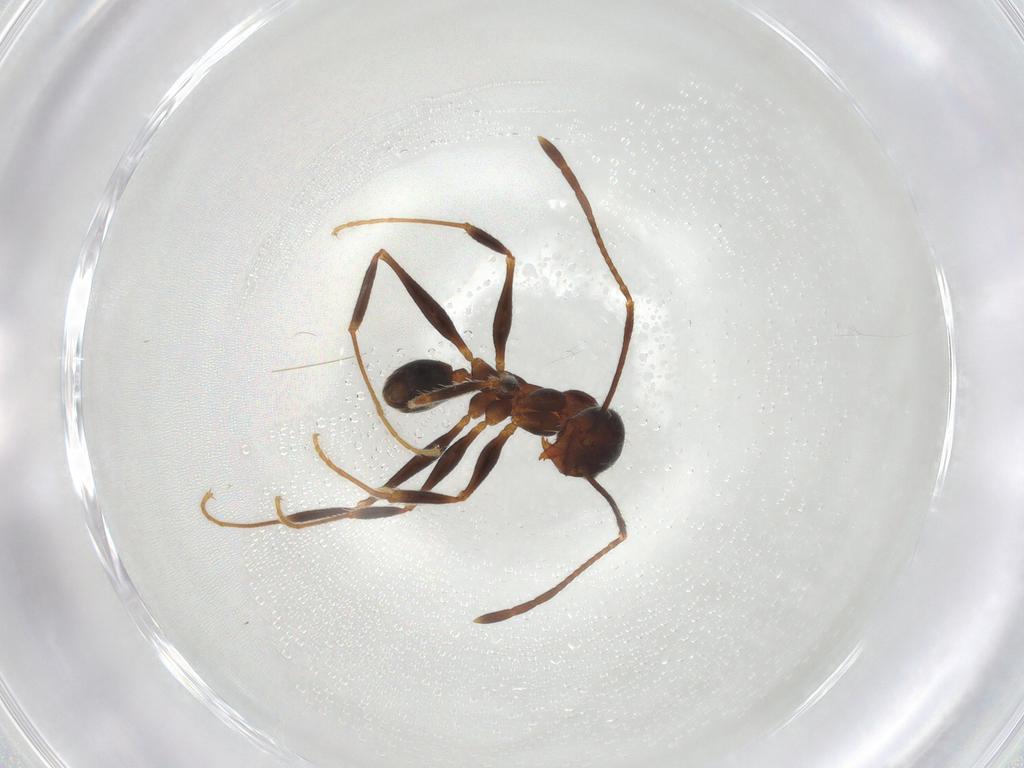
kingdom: Animalia
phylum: Arthropoda
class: Insecta
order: Hymenoptera
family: Formicidae
